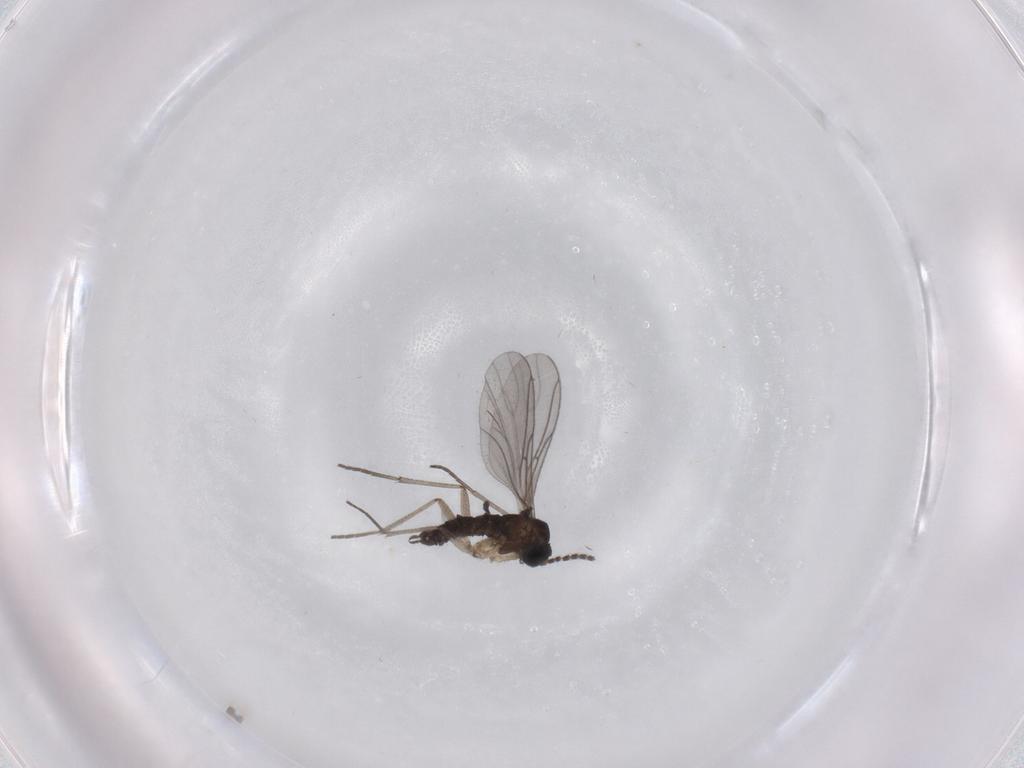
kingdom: Animalia
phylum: Arthropoda
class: Insecta
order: Diptera
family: Sciaridae
